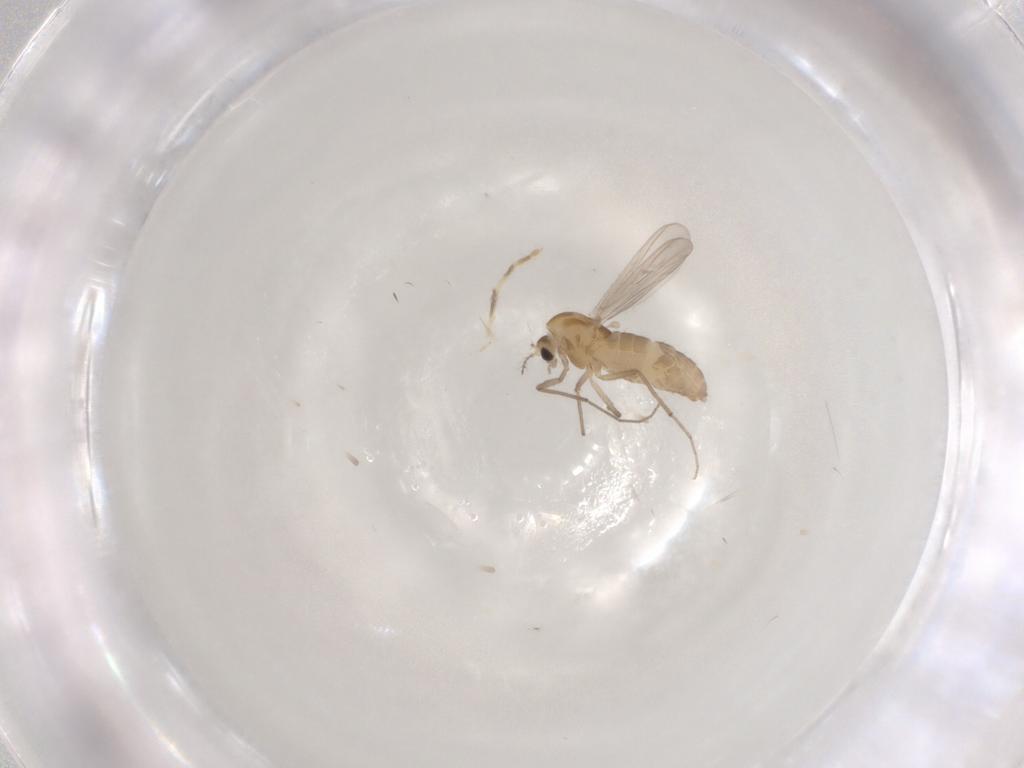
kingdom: Animalia
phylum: Arthropoda
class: Insecta
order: Diptera
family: Chironomidae
